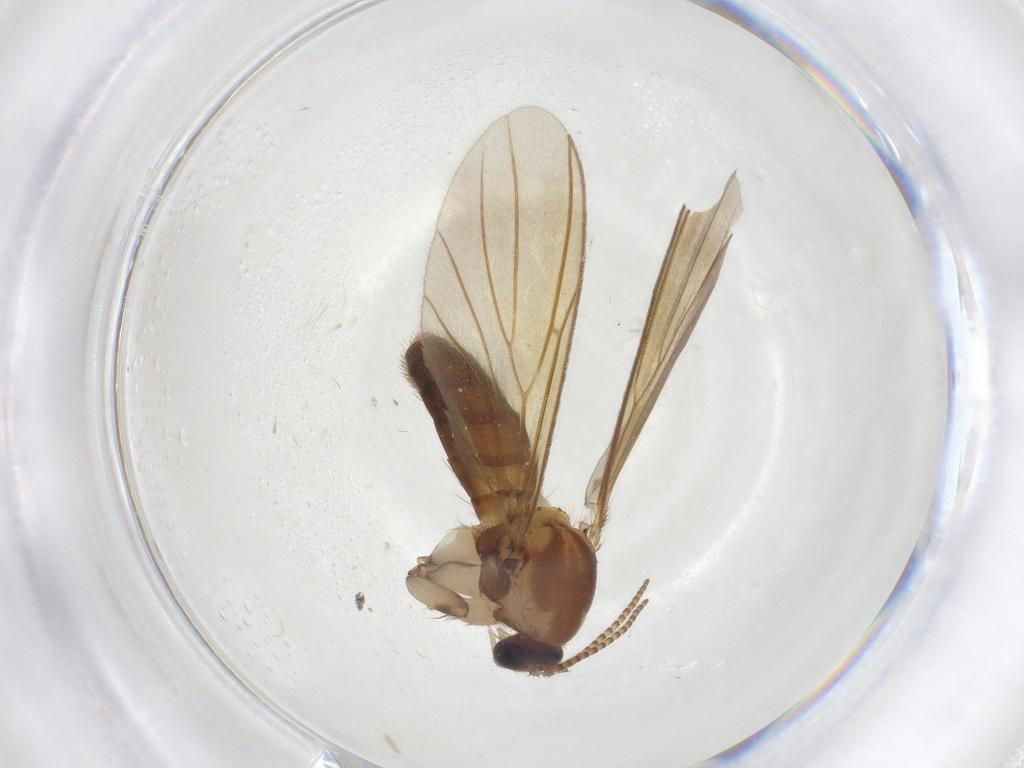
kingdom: Animalia
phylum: Arthropoda
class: Insecta
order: Diptera
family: Mycetophilidae
